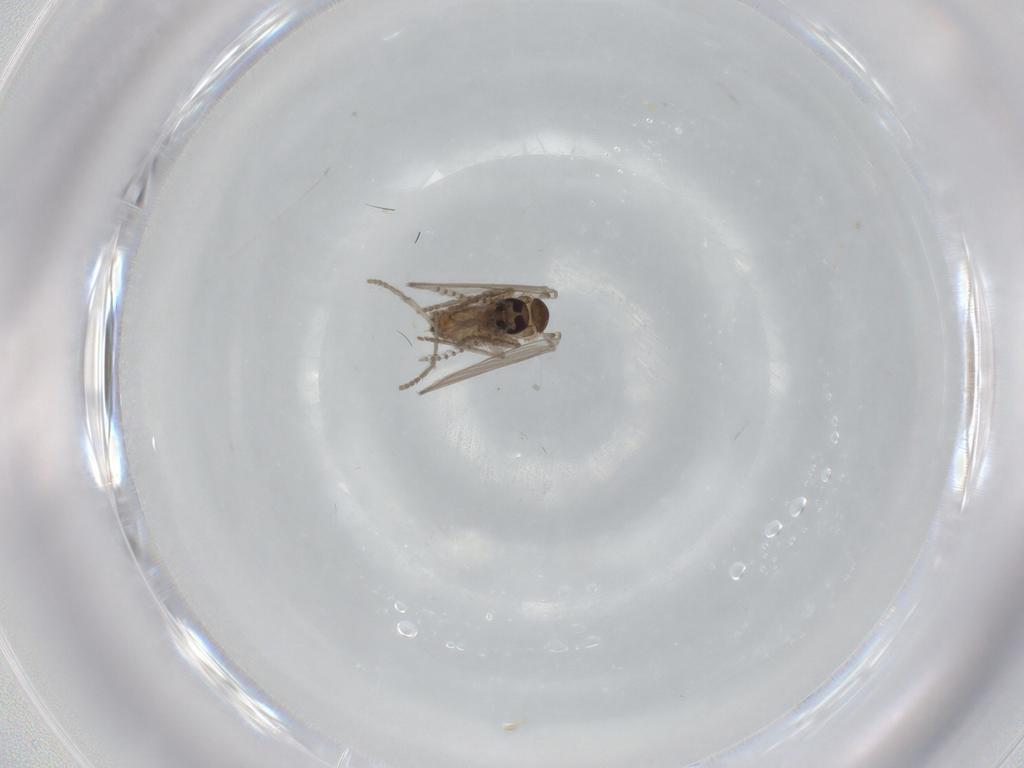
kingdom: Animalia
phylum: Arthropoda
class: Insecta
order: Diptera
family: Psychodidae
